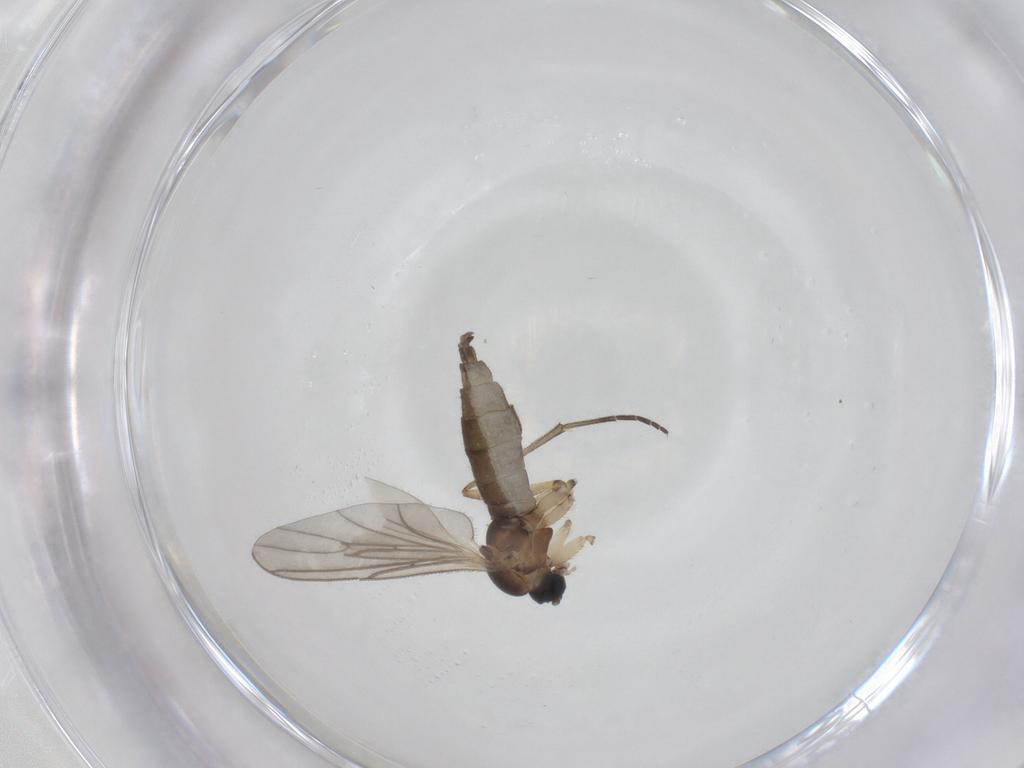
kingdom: Animalia
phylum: Arthropoda
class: Insecta
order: Diptera
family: Sciaridae
